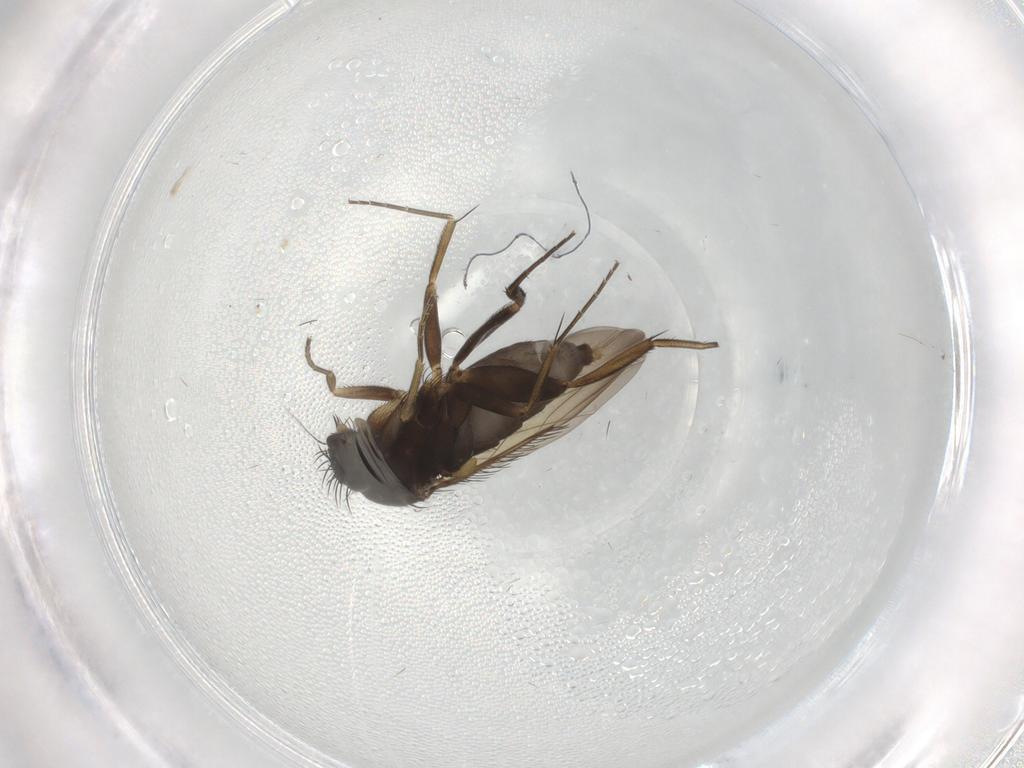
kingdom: Animalia
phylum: Arthropoda
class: Insecta
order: Diptera
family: Phoridae
